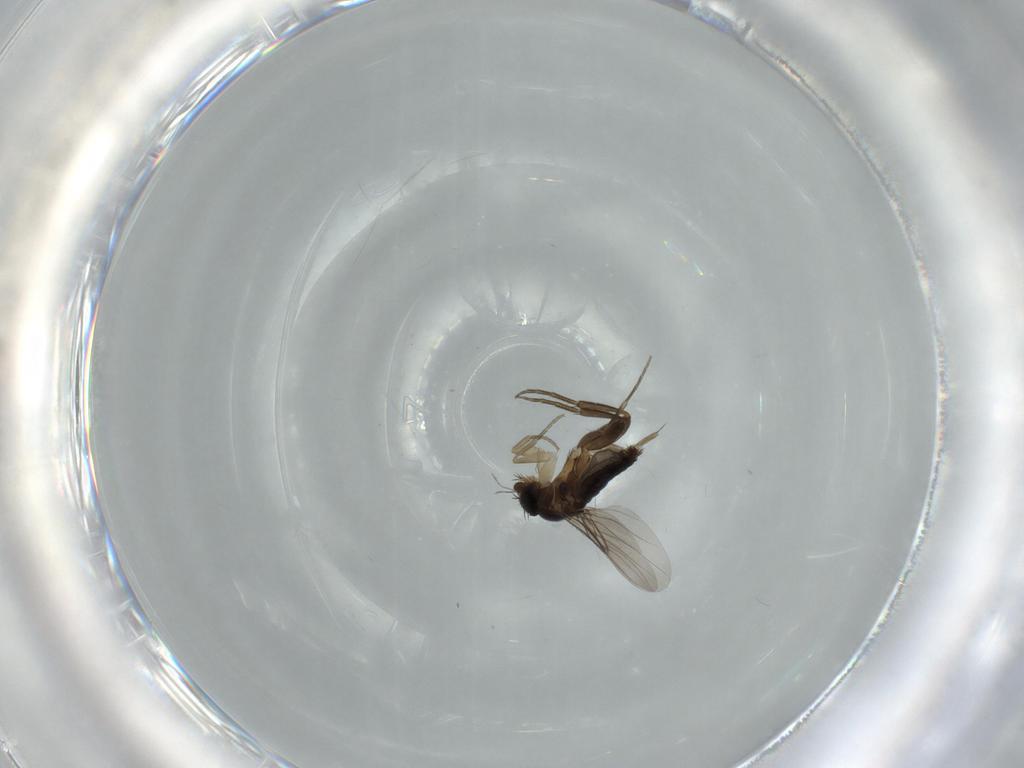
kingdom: Animalia
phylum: Arthropoda
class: Insecta
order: Diptera
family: Phoridae
